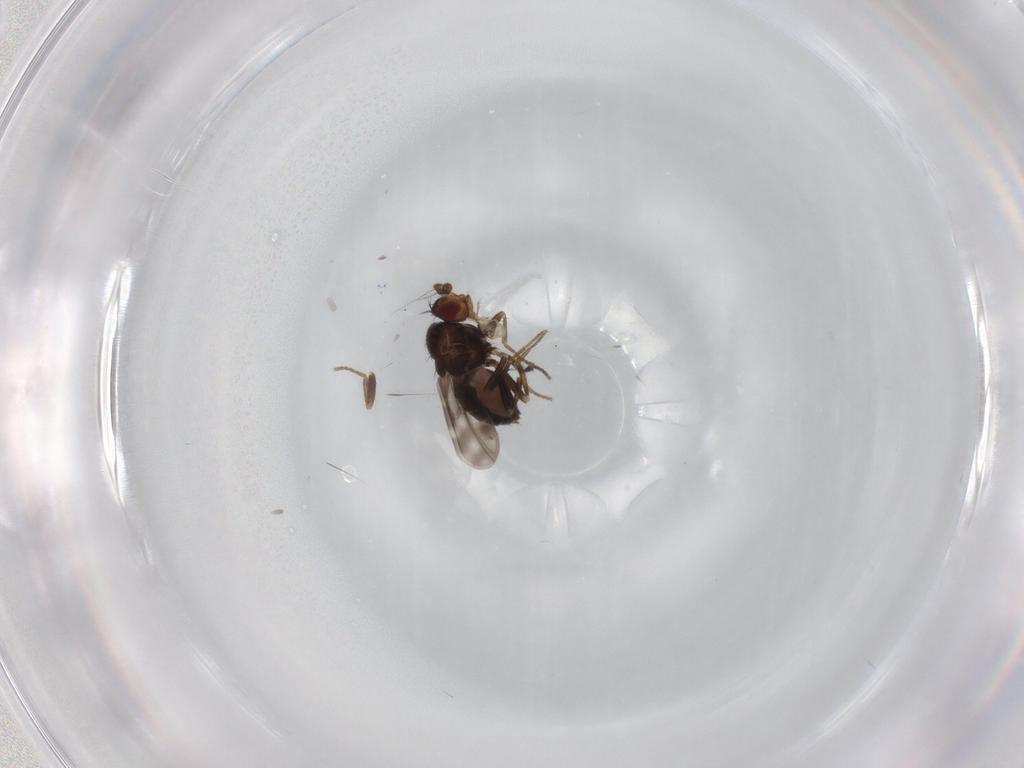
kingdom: Animalia
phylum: Arthropoda
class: Insecta
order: Diptera
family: Sphaeroceridae
